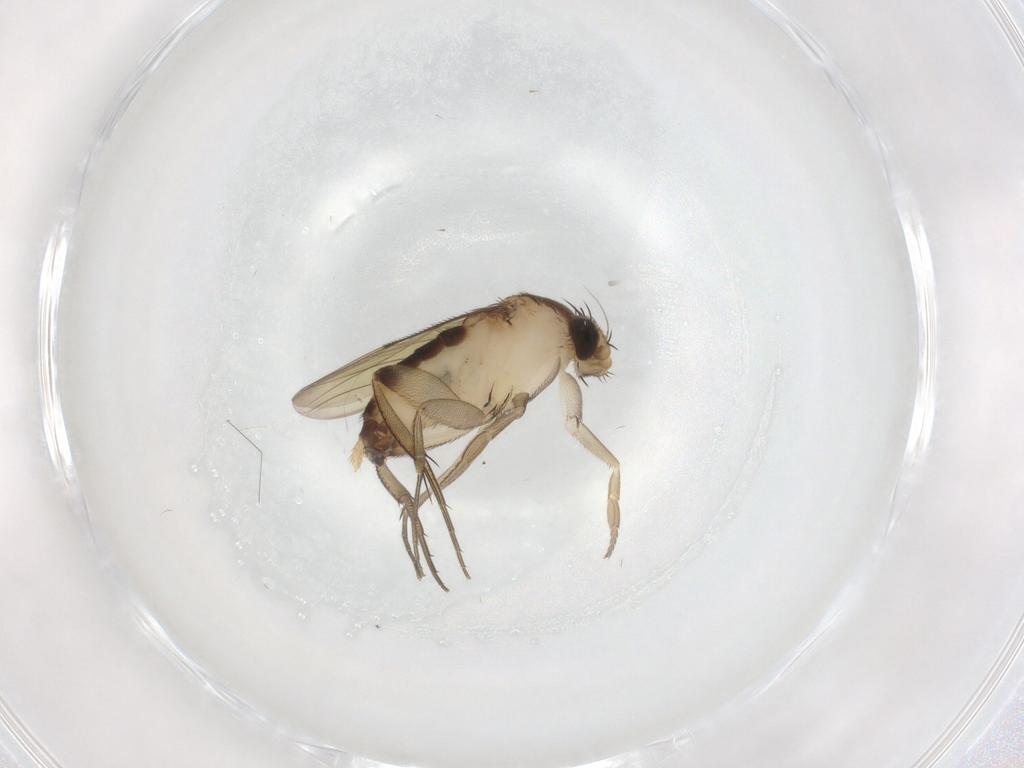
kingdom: Animalia
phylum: Arthropoda
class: Insecta
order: Diptera
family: Phoridae
